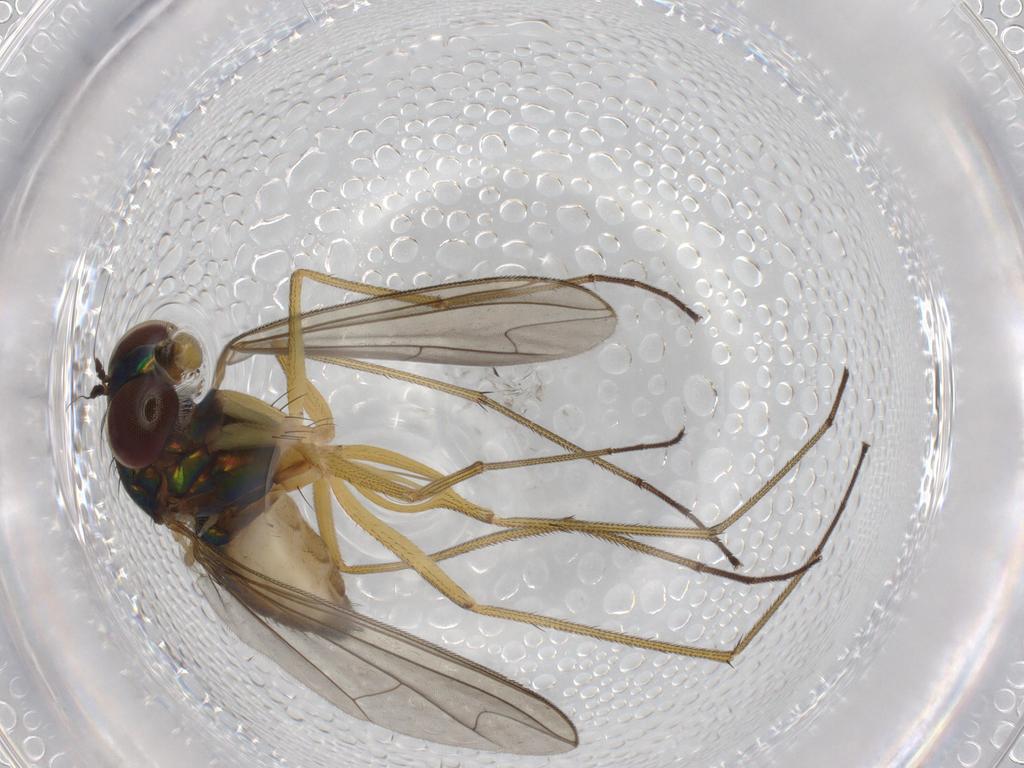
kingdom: Animalia
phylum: Arthropoda
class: Insecta
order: Diptera
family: Dolichopodidae
